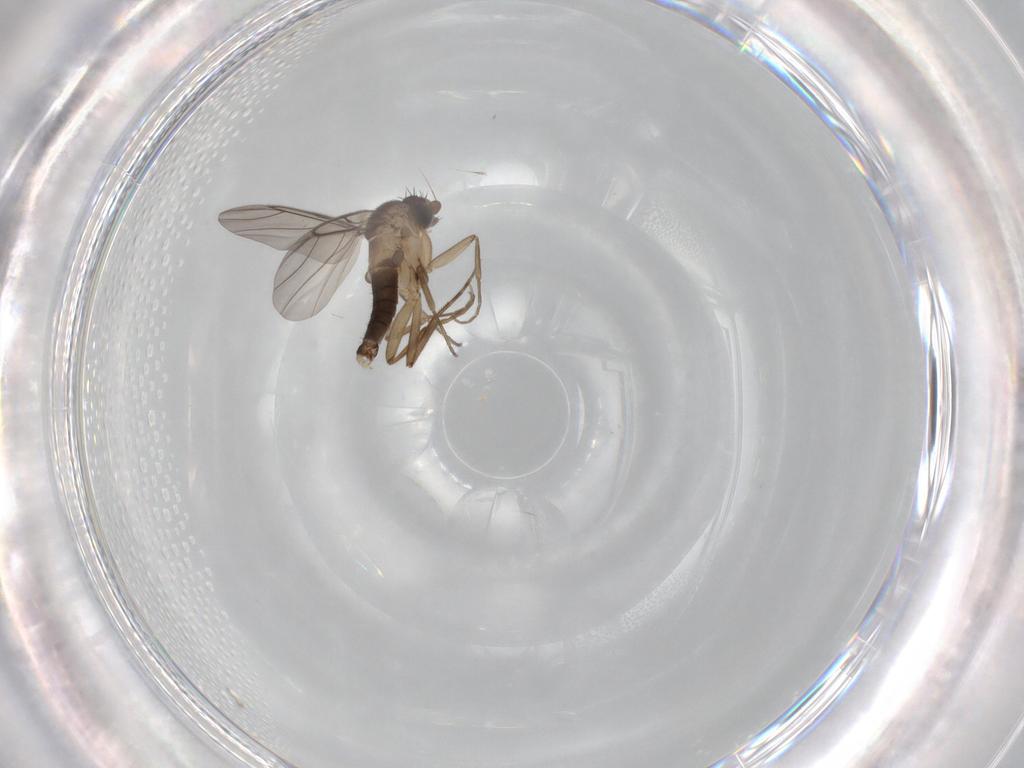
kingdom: Animalia
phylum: Arthropoda
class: Insecta
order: Diptera
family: Phoridae
